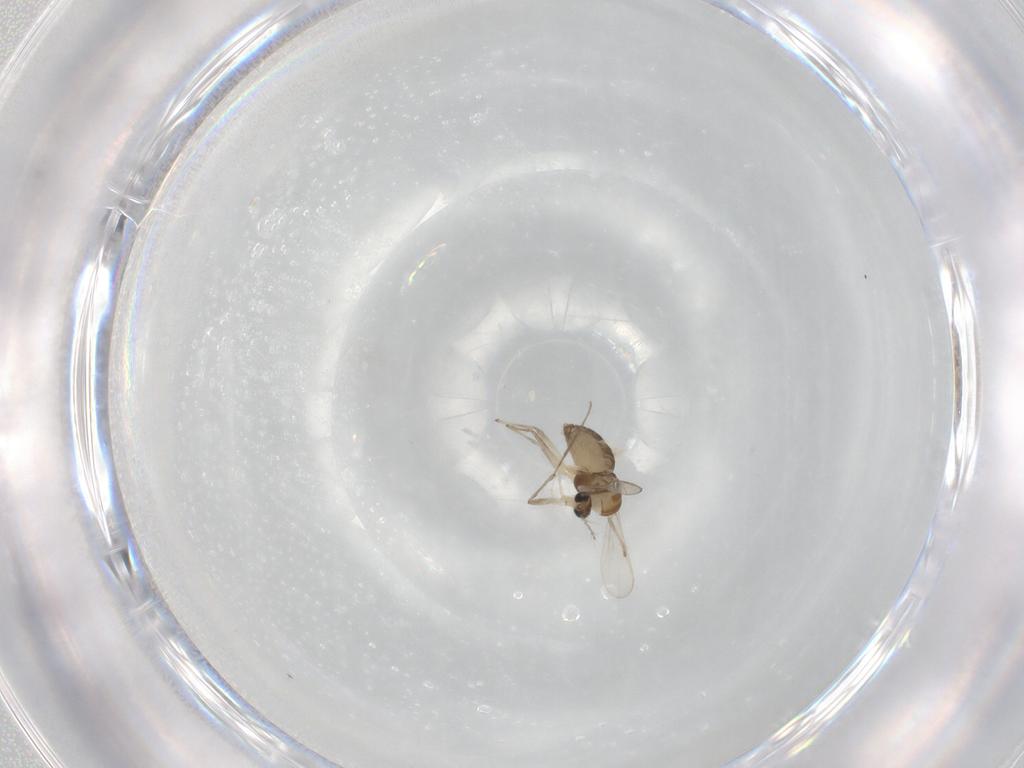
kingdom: Animalia
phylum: Arthropoda
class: Insecta
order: Diptera
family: Chironomidae
